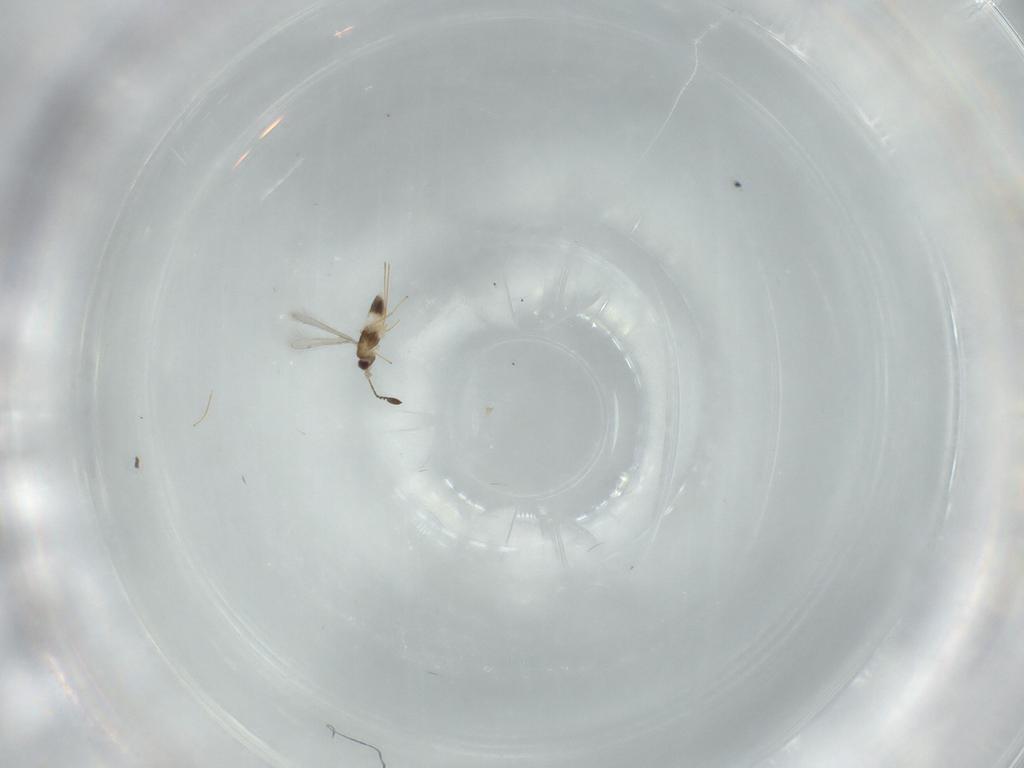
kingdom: Animalia
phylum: Arthropoda
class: Insecta
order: Hymenoptera
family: Mymaridae
